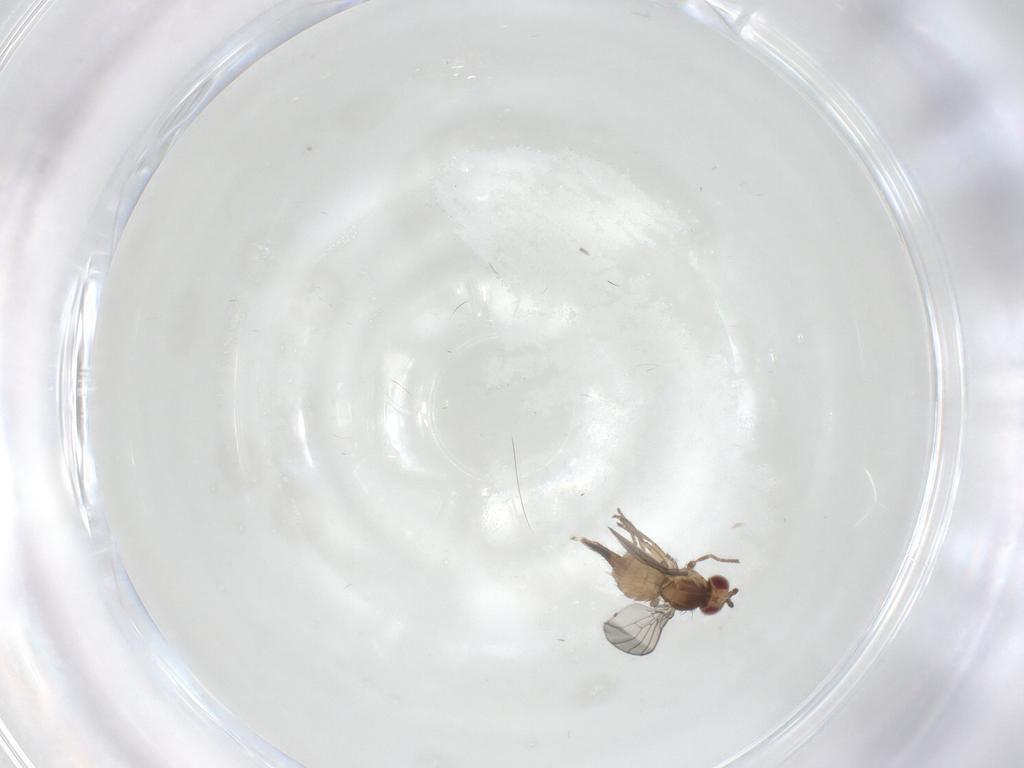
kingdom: Animalia
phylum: Arthropoda
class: Insecta
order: Diptera
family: Agromyzidae
